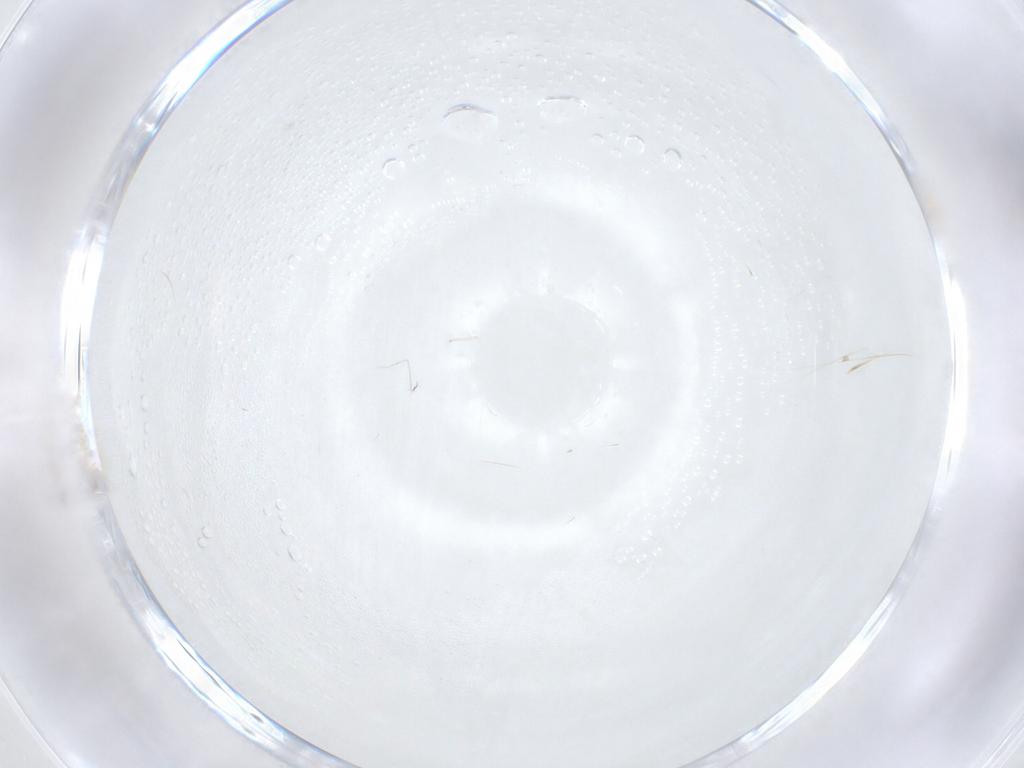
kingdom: Animalia
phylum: Arthropoda
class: Insecta
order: Diptera
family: Cecidomyiidae
